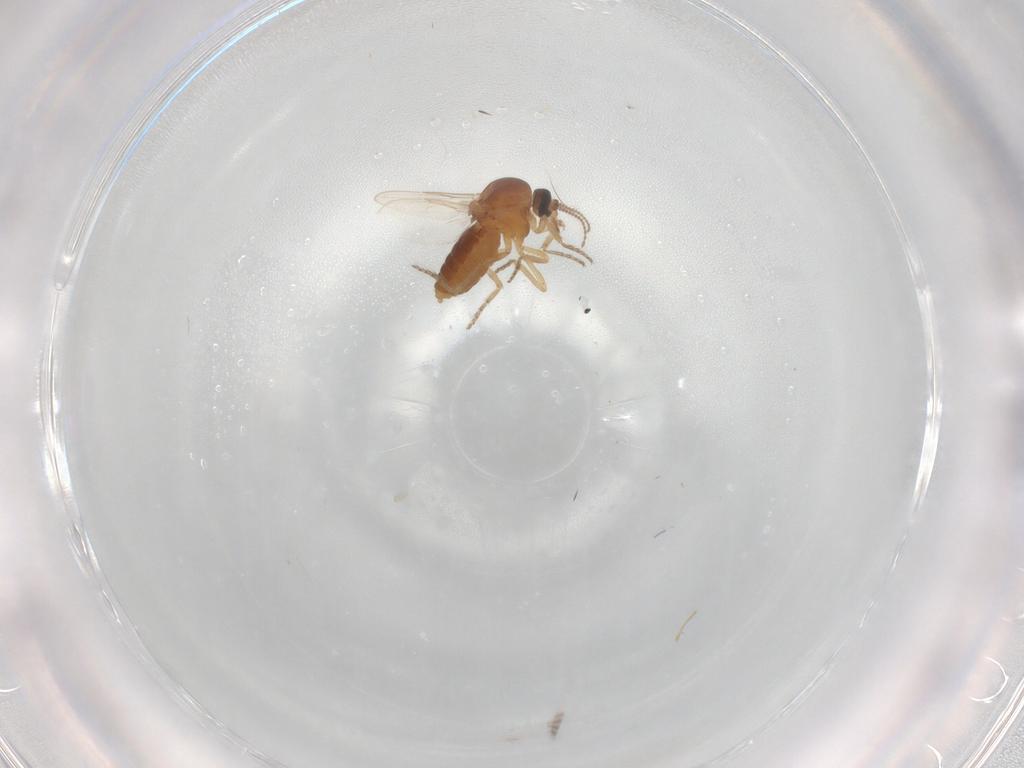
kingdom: Animalia
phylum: Arthropoda
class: Insecta
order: Diptera
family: Ceratopogonidae
